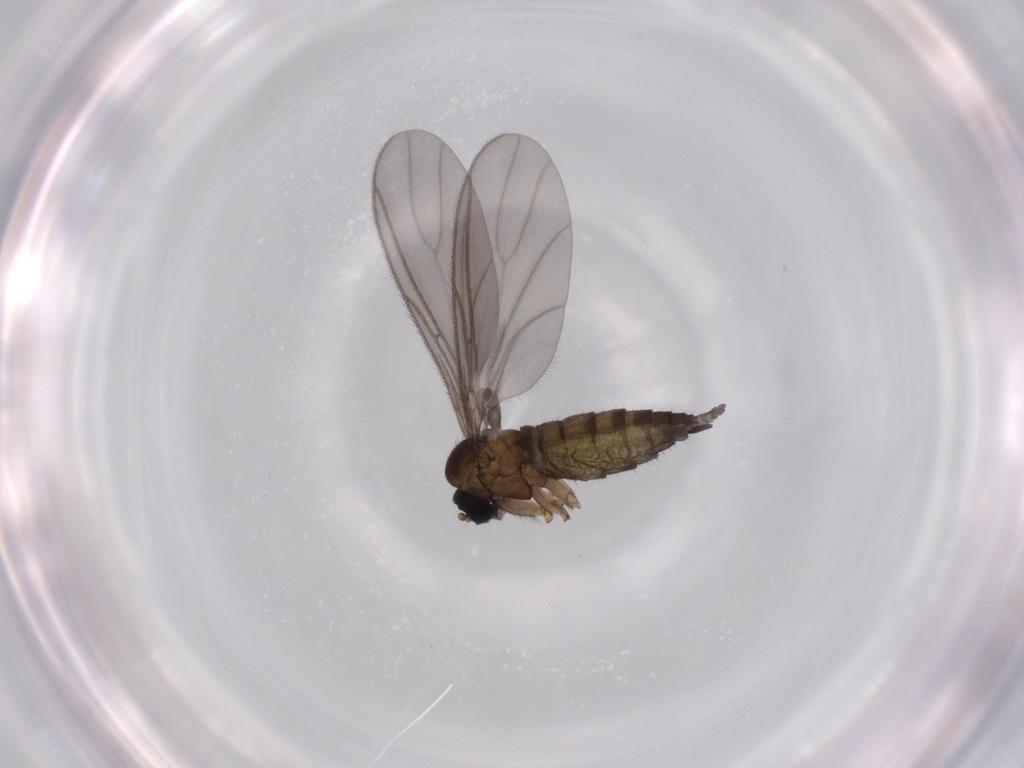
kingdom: Animalia
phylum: Arthropoda
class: Insecta
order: Diptera
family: Sciaridae
